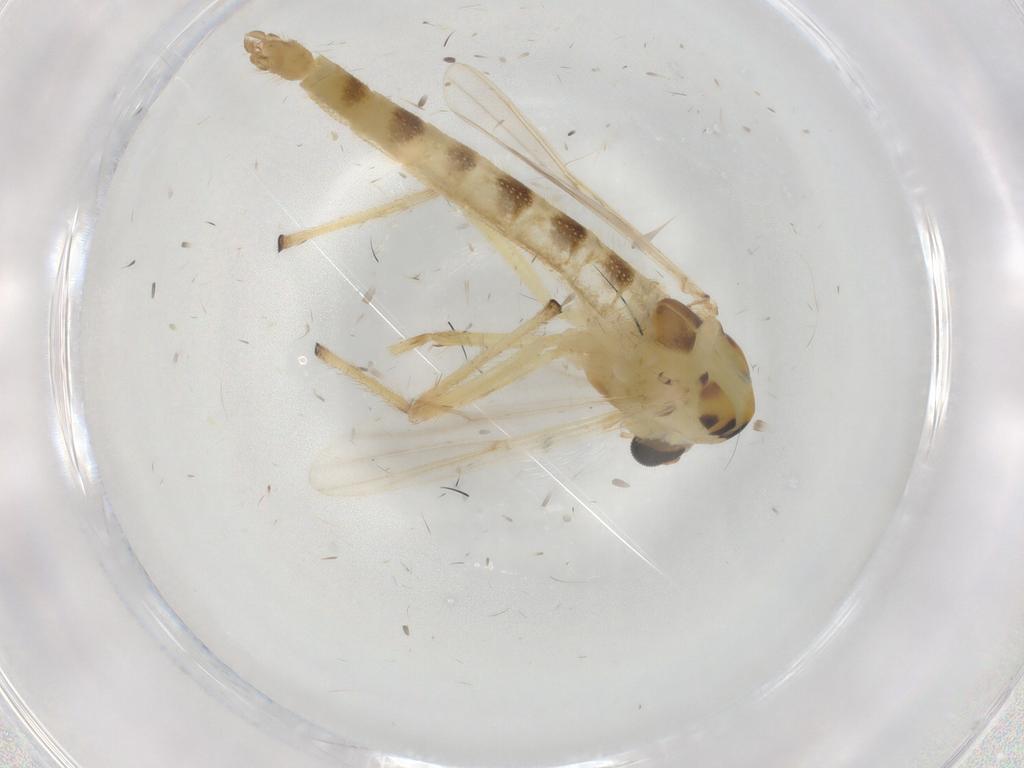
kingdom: Animalia
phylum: Arthropoda
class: Insecta
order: Diptera
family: Chironomidae
